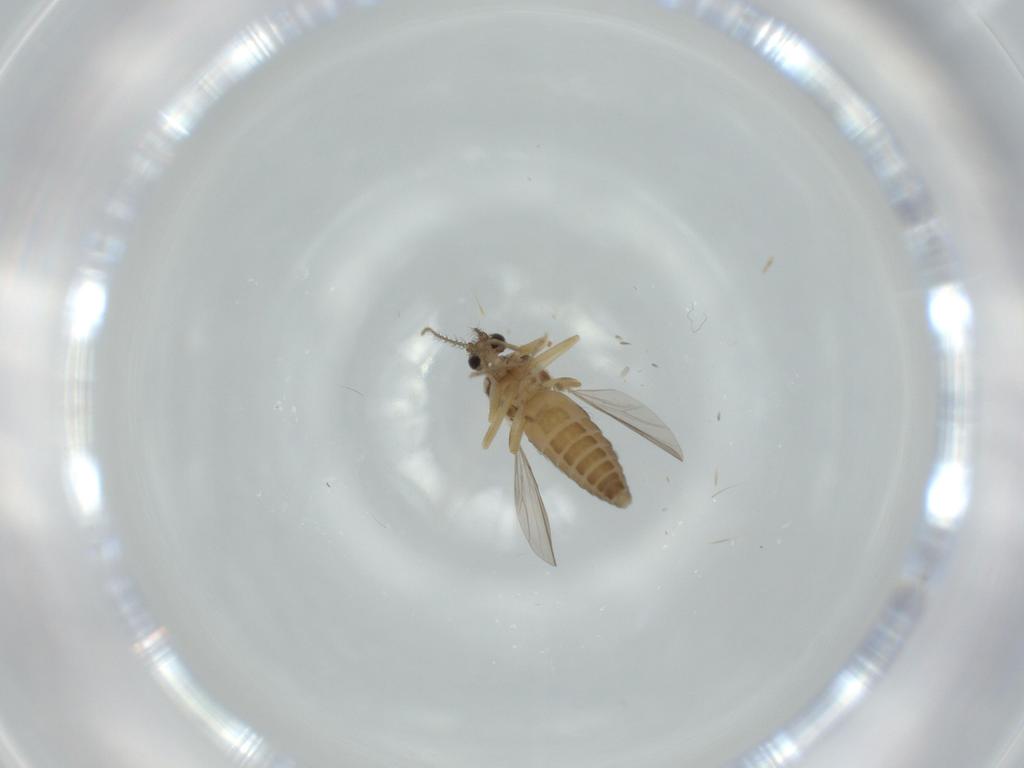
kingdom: Animalia
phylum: Arthropoda
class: Insecta
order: Diptera
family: Ceratopogonidae
